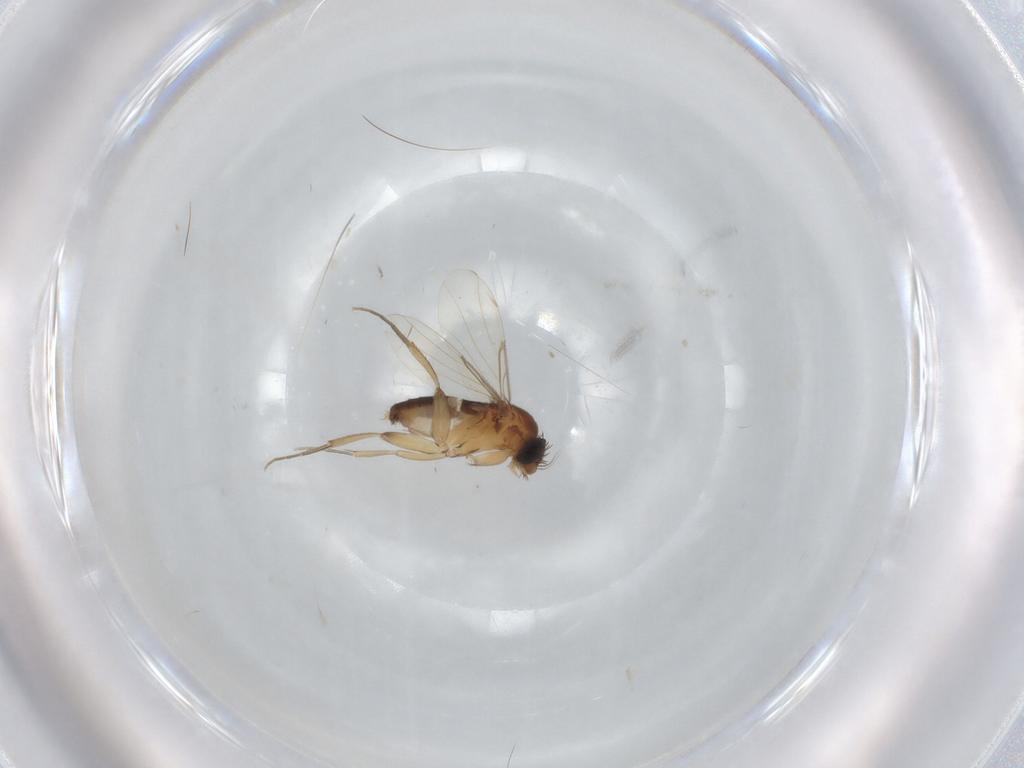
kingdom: Animalia
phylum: Arthropoda
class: Insecta
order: Diptera
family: Phoridae
